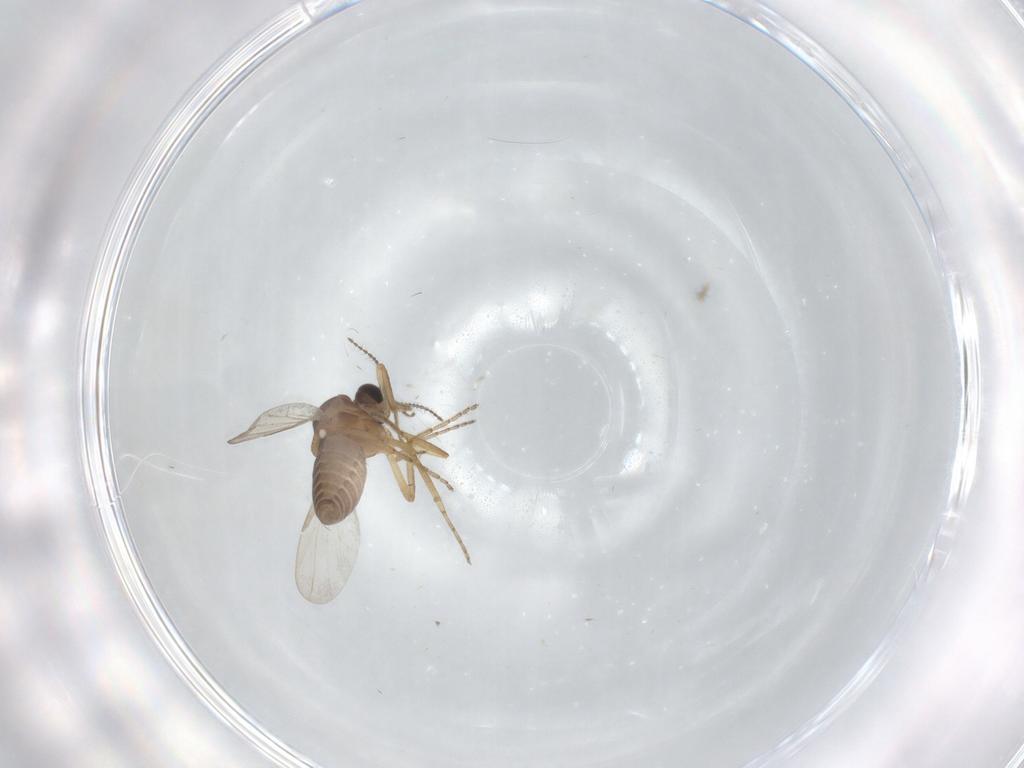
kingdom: Animalia
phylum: Arthropoda
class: Insecta
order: Diptera
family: Ceratopogonidae
